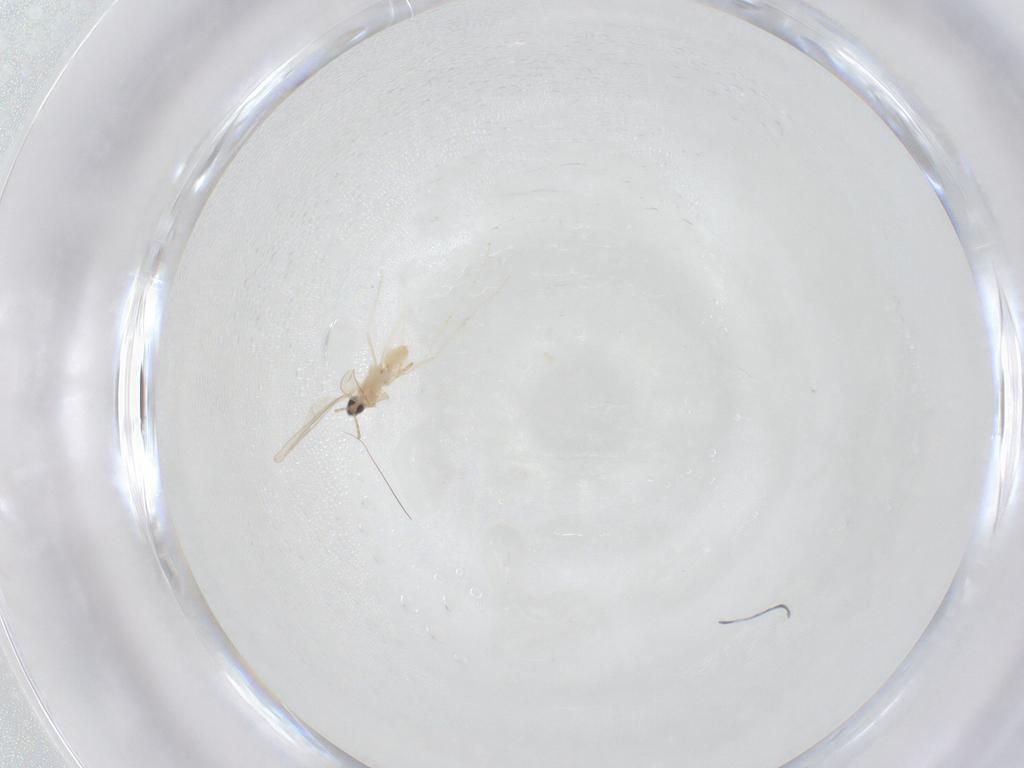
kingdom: Animalia
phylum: Arthropoda
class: Insecta
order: Diptera
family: Cecidomyiidae
